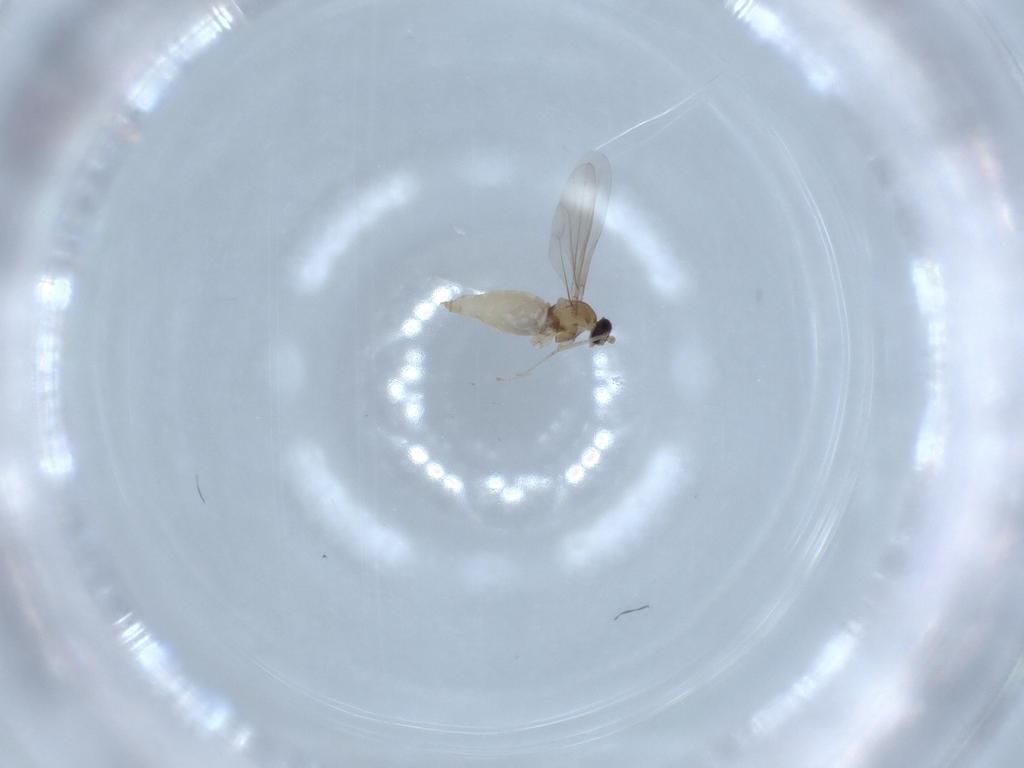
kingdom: Animalia
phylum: Arthropoda
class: Insecta
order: Diptera
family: Cecidomyiidae
